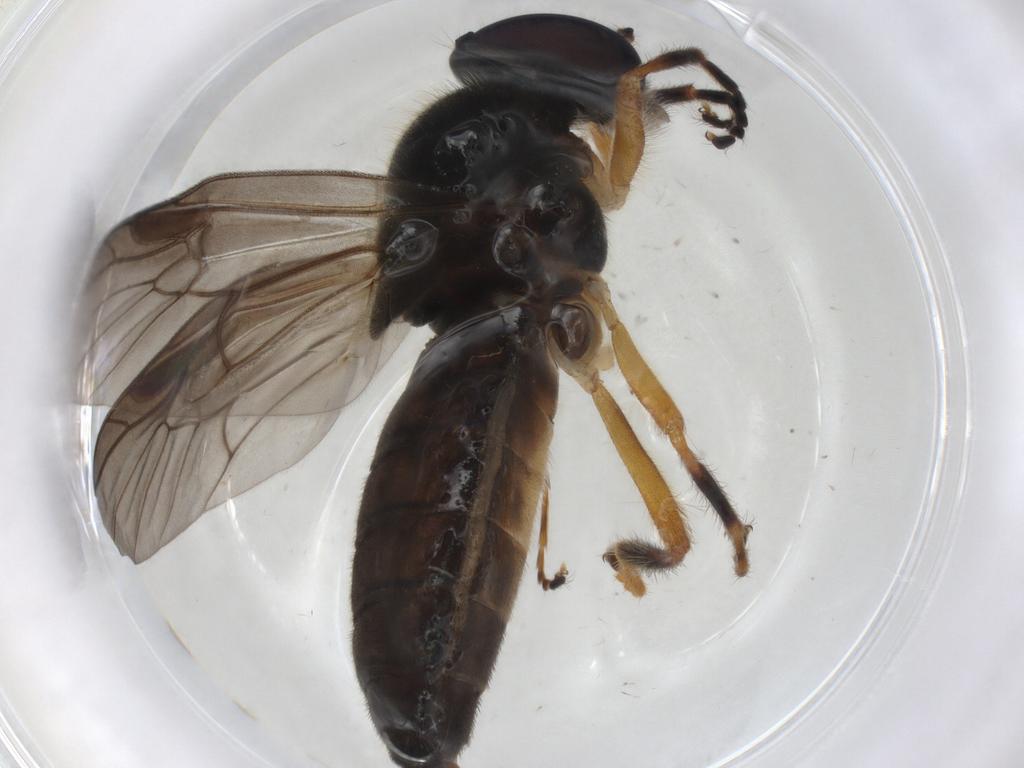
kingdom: Animalia
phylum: Arthropoda
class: Insecta
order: Diptera
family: Stratiomyidae
